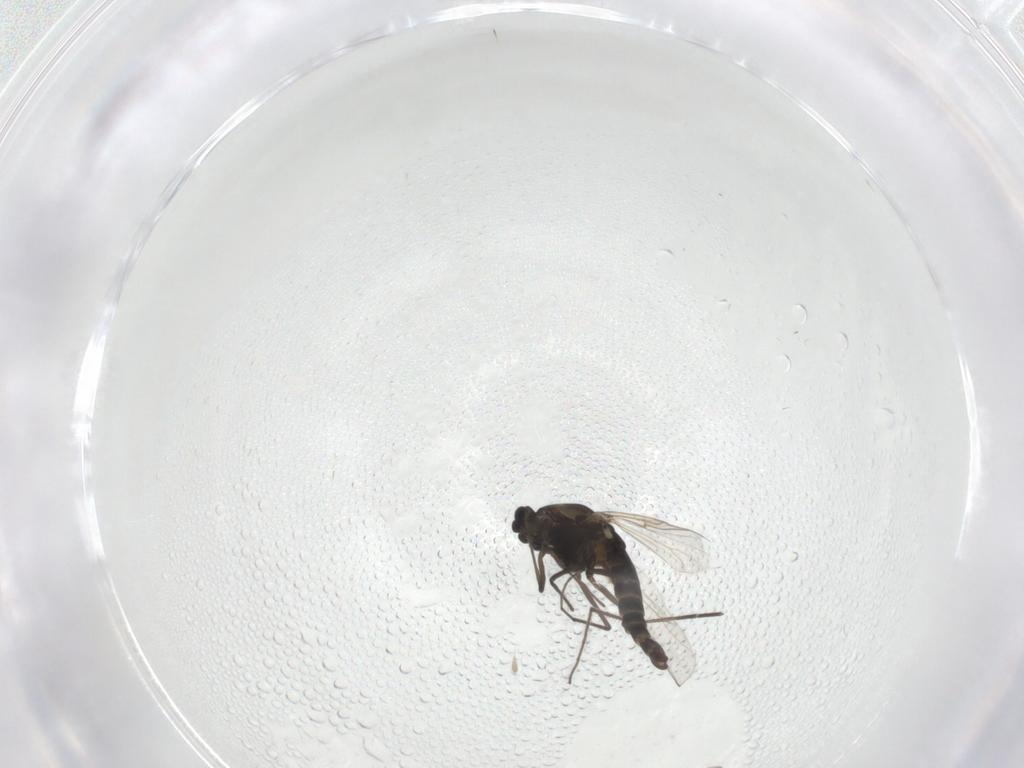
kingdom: Animalia
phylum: Arthropoda
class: Insecta
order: Diptera
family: Chironomidae
